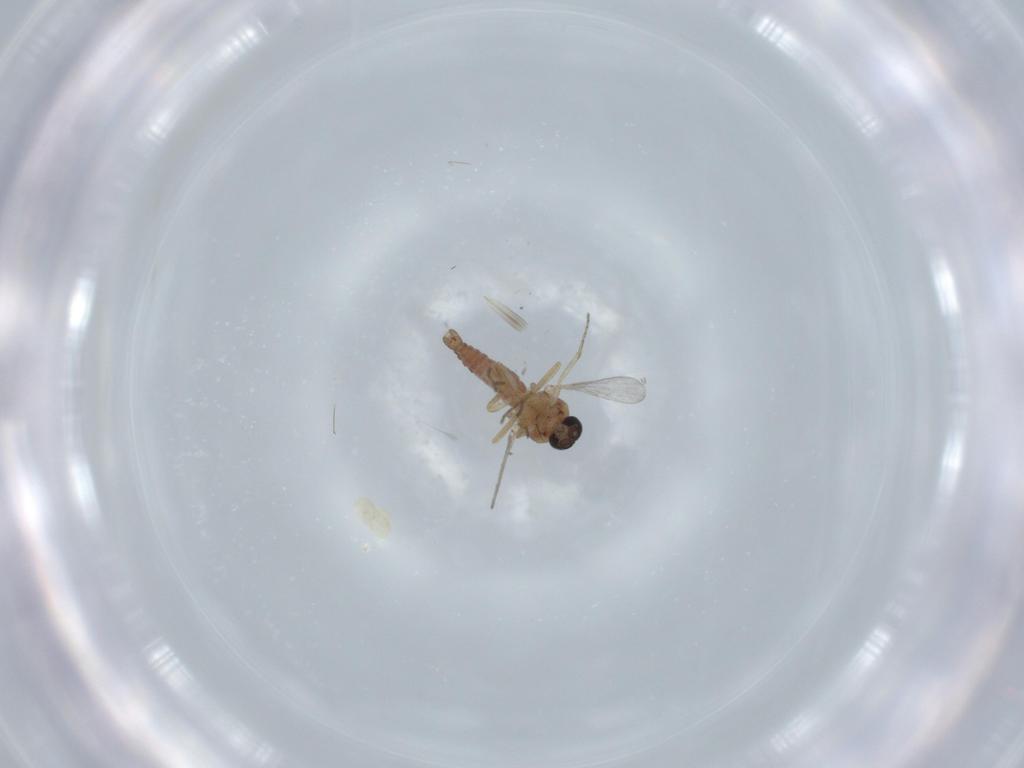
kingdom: Animalia
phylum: Arthropoda
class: Insecta
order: Diptera
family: Ceratopogonidae
